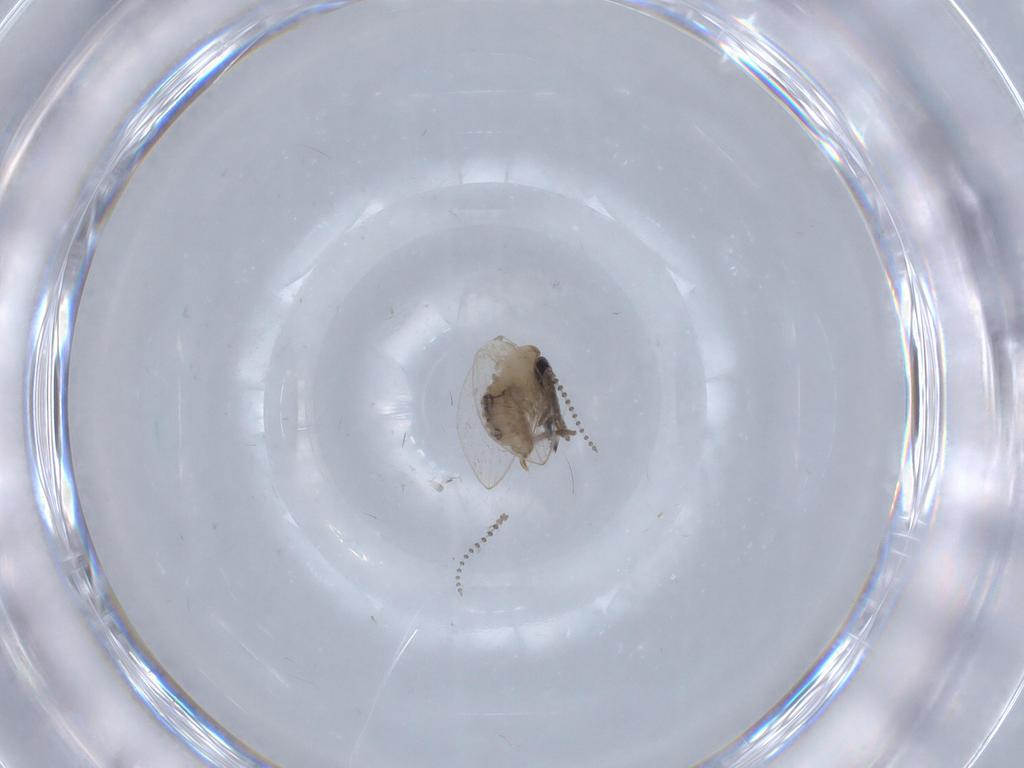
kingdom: Animalia
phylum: Arthropoda
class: Insecta
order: Diptera
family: Psychodidae
